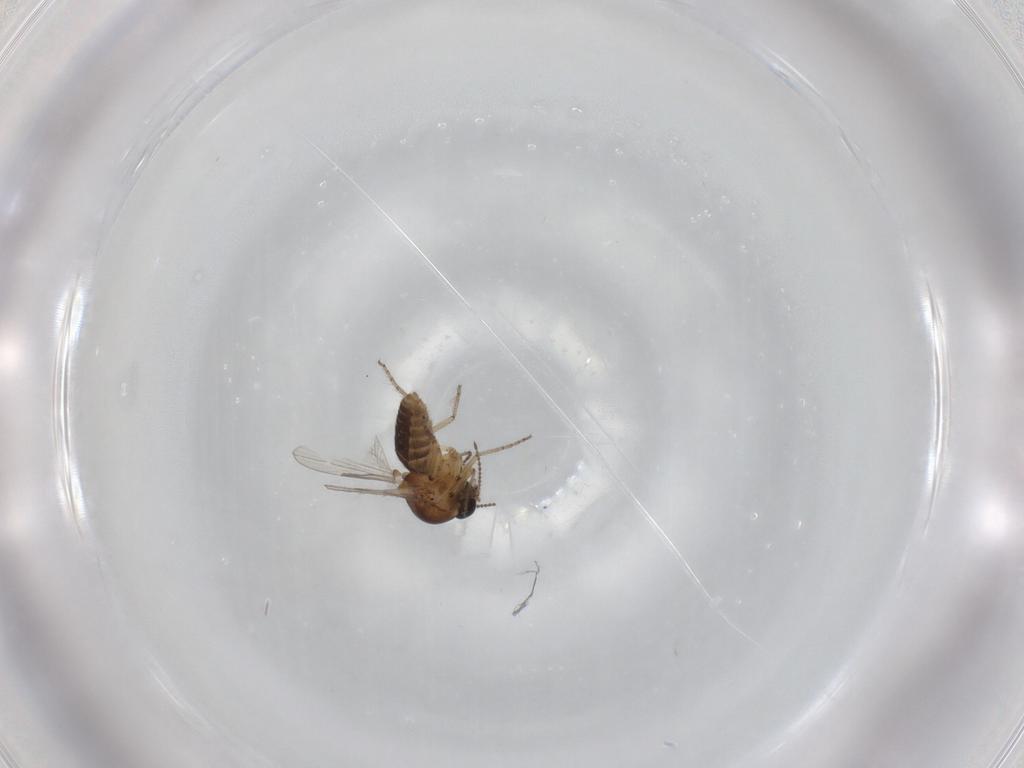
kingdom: Animalia
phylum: Arthropoda
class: Insecta
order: Diptera
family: Ceratopogonidae
